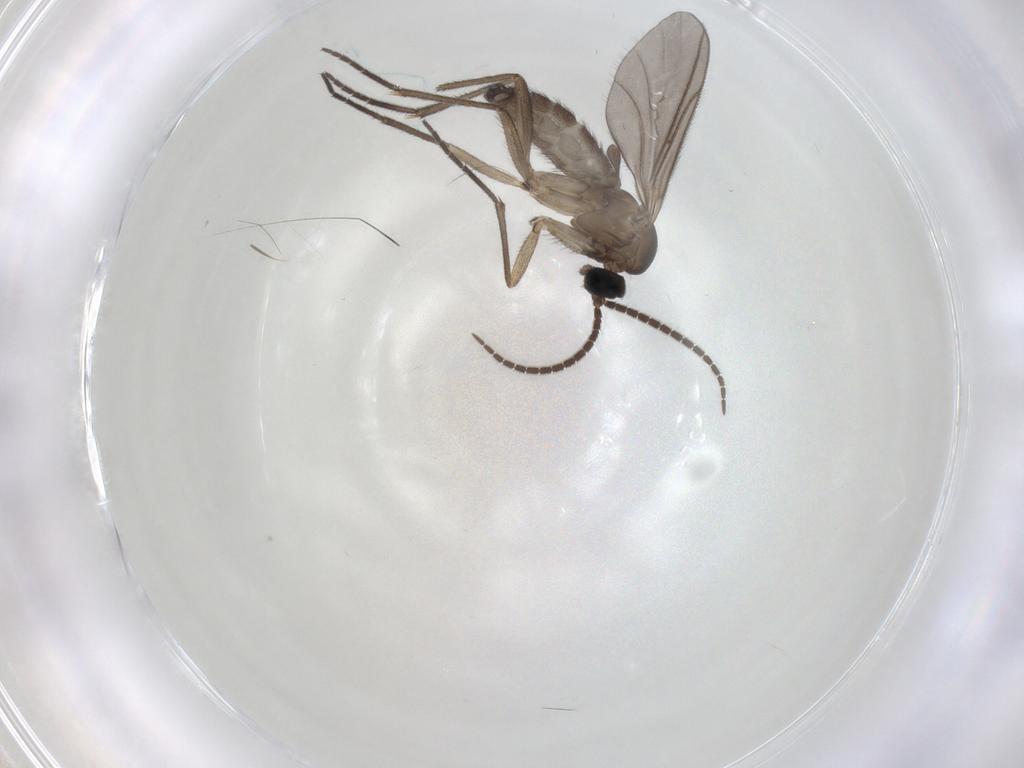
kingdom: Animalia
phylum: Arthropoda
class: Insecta
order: Diptera
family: Sciaridae
